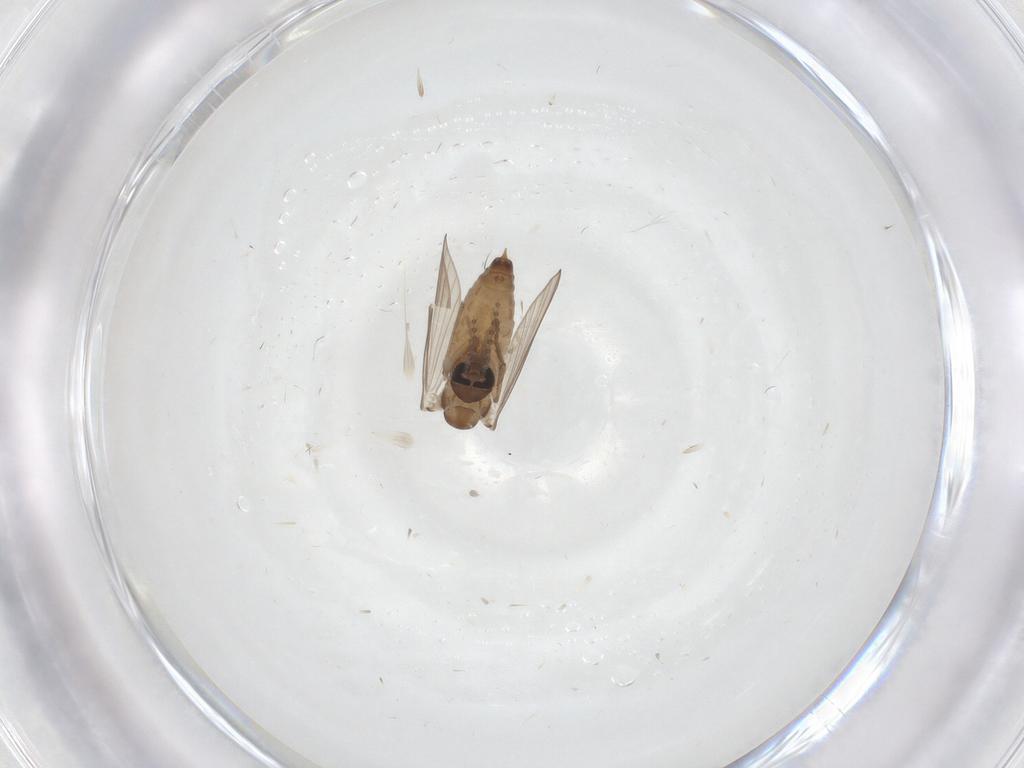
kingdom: Animalia
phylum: Arthropoda
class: Insecta
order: Diptera
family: Psychodidae
